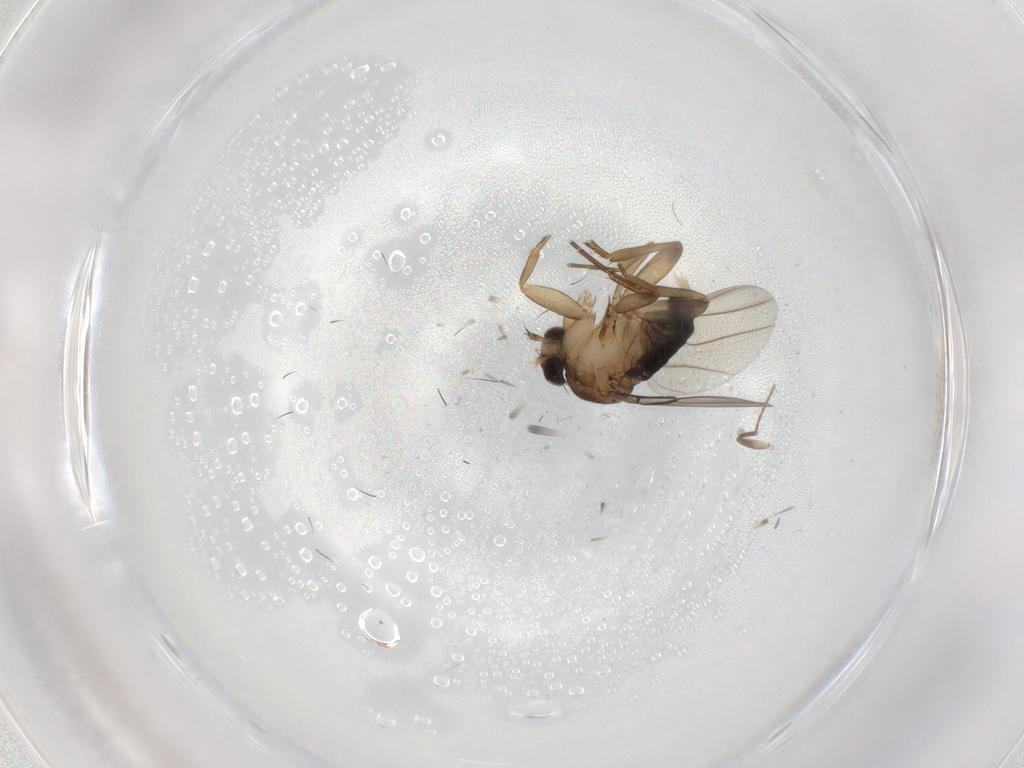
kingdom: Animalia
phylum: Arthropoda
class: Insecta
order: Diptera
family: Phoridae
